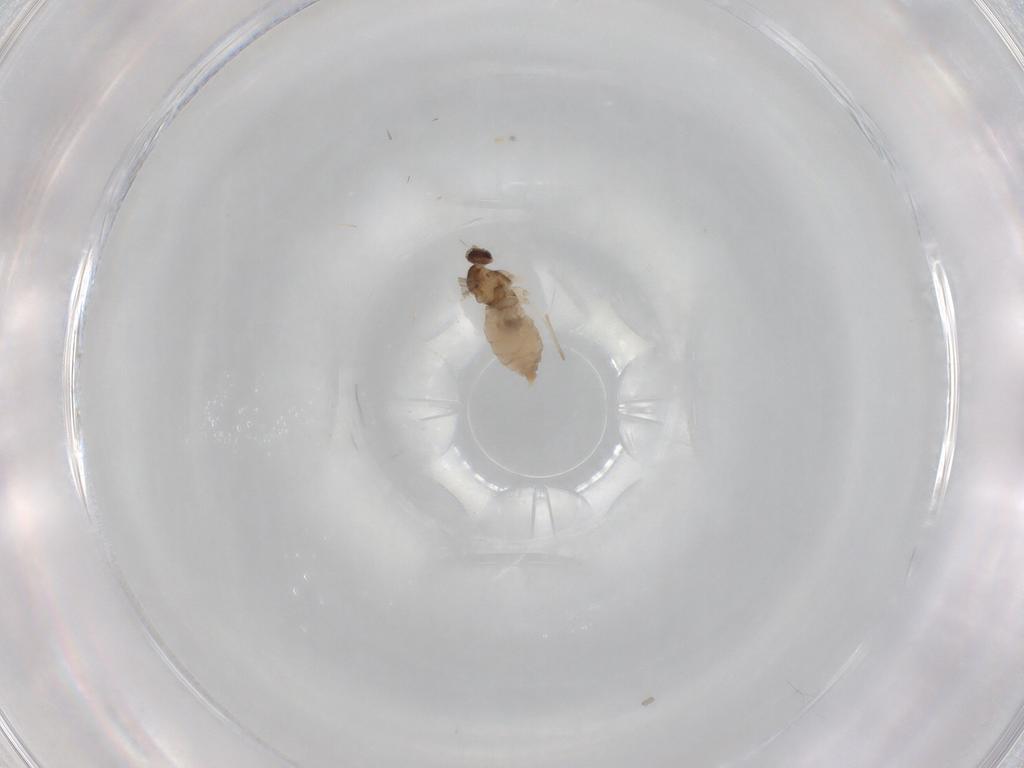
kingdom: Animalia
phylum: Arthropoda
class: Insecta
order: Diptera
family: Cecidomyiidae
